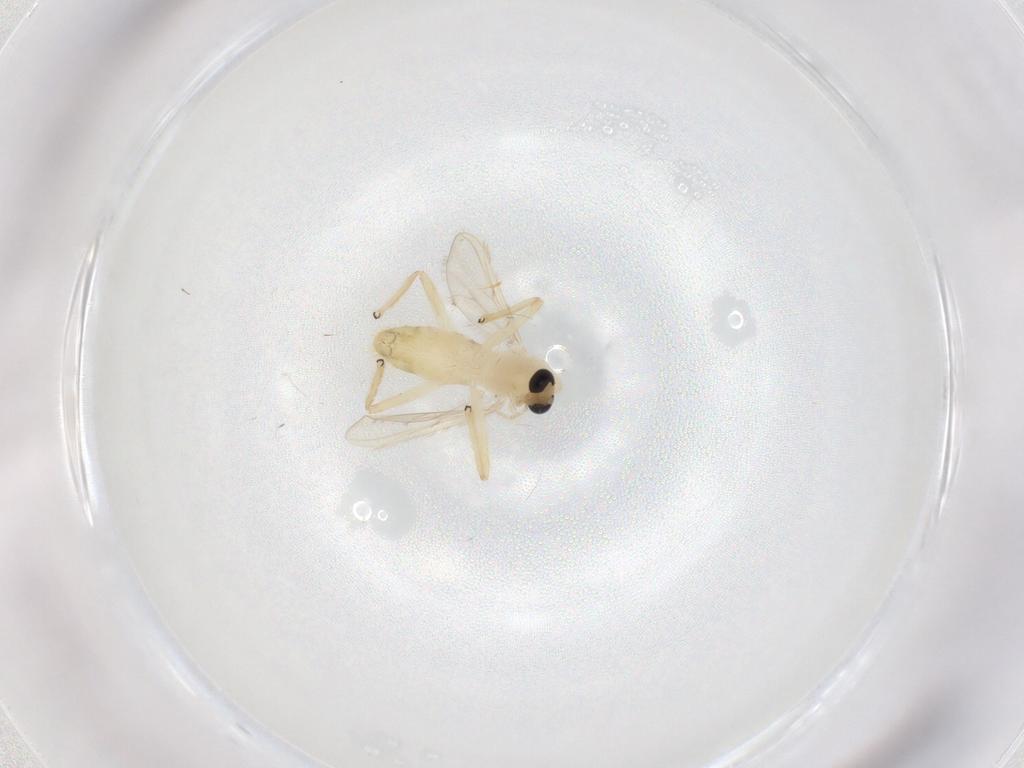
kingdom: Animalia
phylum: Arthropoda
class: Insecta
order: Diptera
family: Chironomidae
